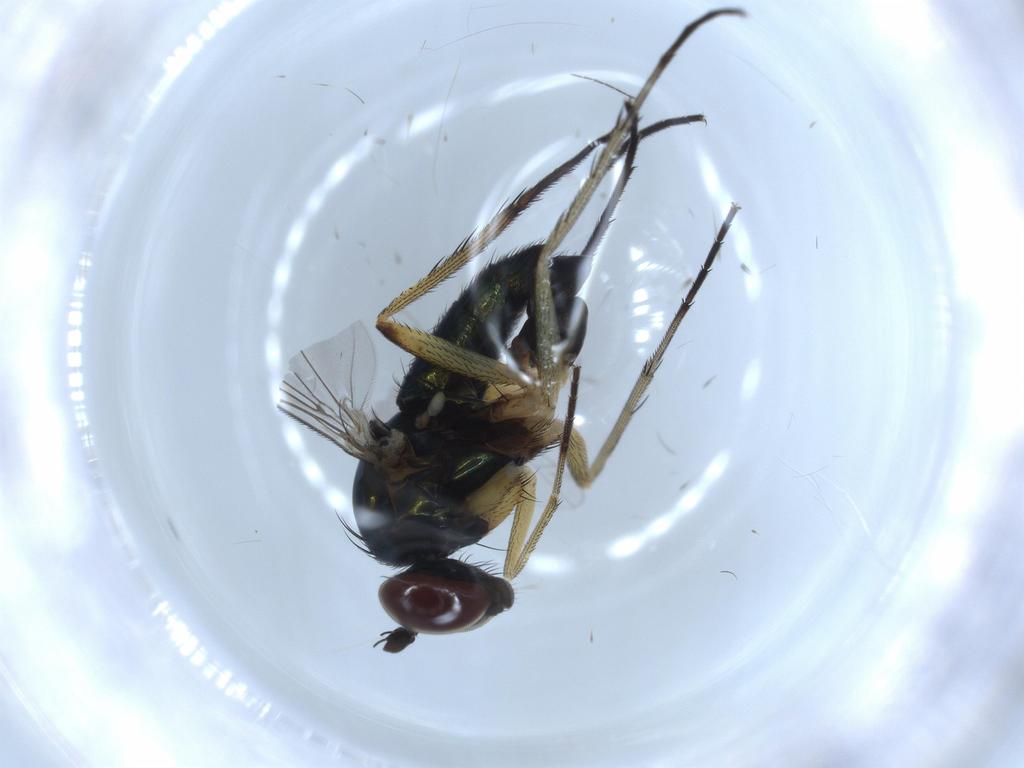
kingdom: Animalia
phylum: Arthropoda
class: Insecta
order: Diptera
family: Dolichopodidae
